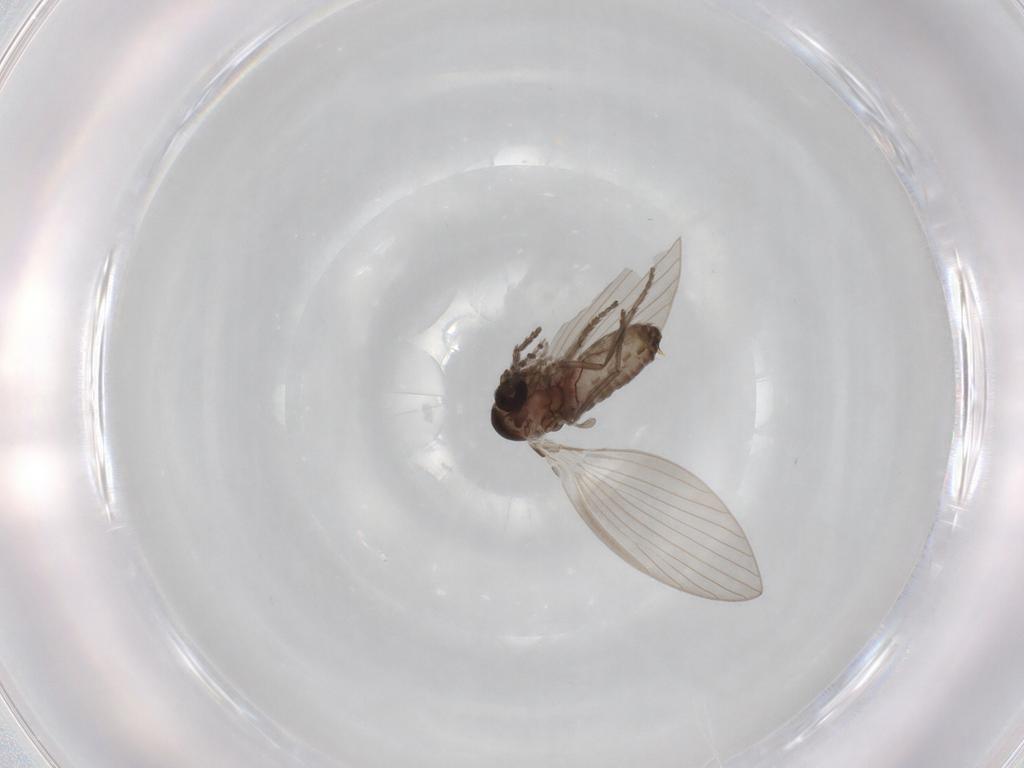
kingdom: Animalia
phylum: Arthropoda
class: Insecta
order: Diptera
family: Psychodidae
